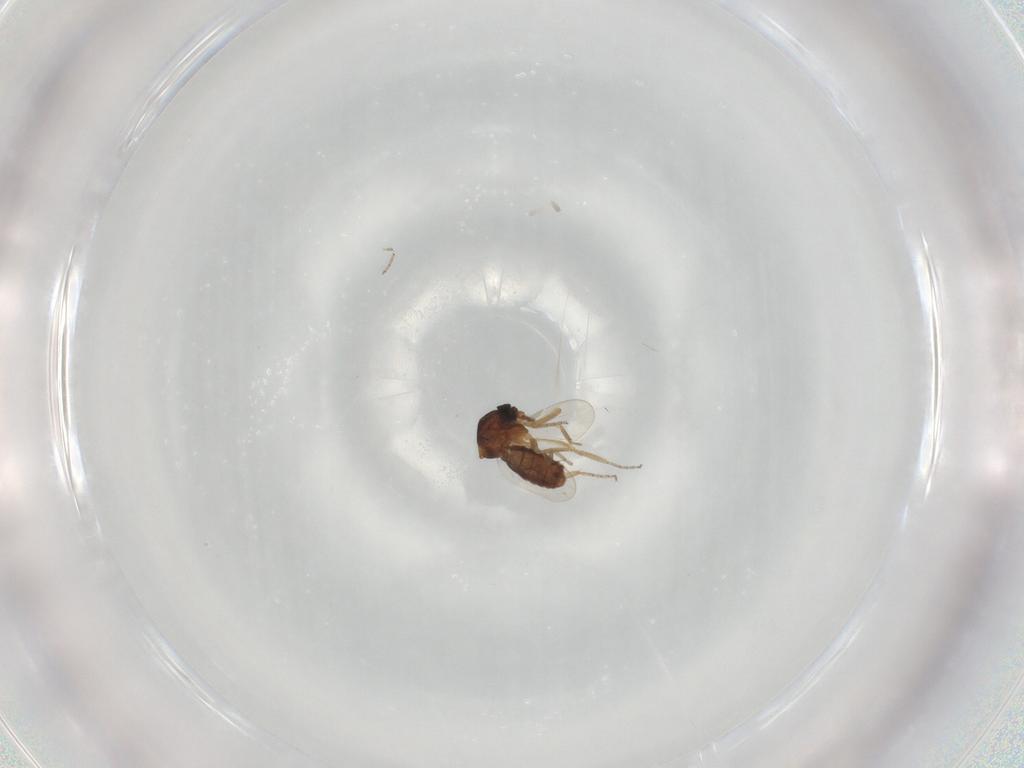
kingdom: Animalia
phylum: Arthropoda
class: Insecta
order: Diptera
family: Ceratopogonidae
